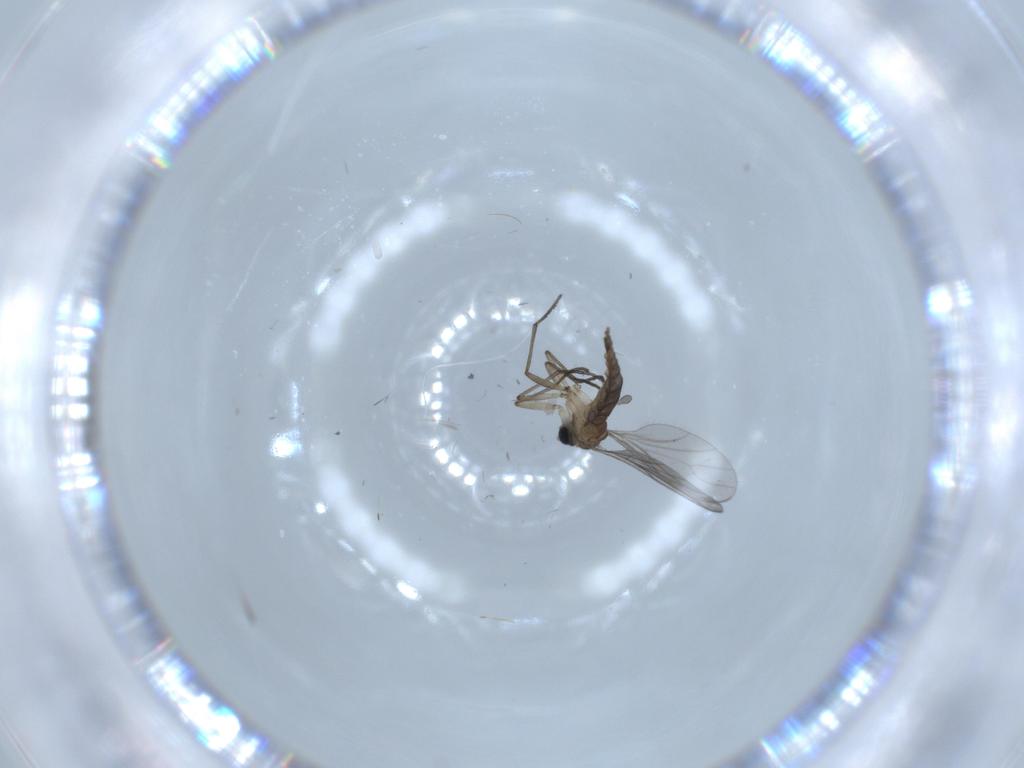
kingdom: Animalia
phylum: Arthropoda
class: Insecta
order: Diptera
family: Sciaridae
